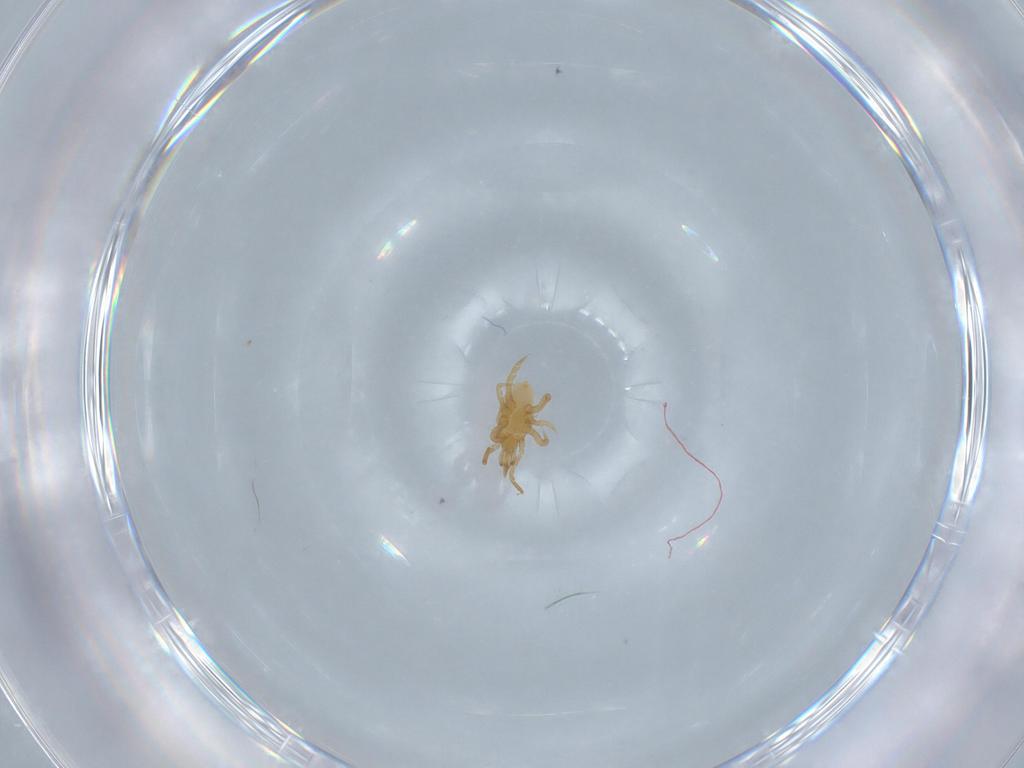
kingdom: Animalia
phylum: Arthropoda
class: Arachnida
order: Mesostigmata
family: Parasitidae
